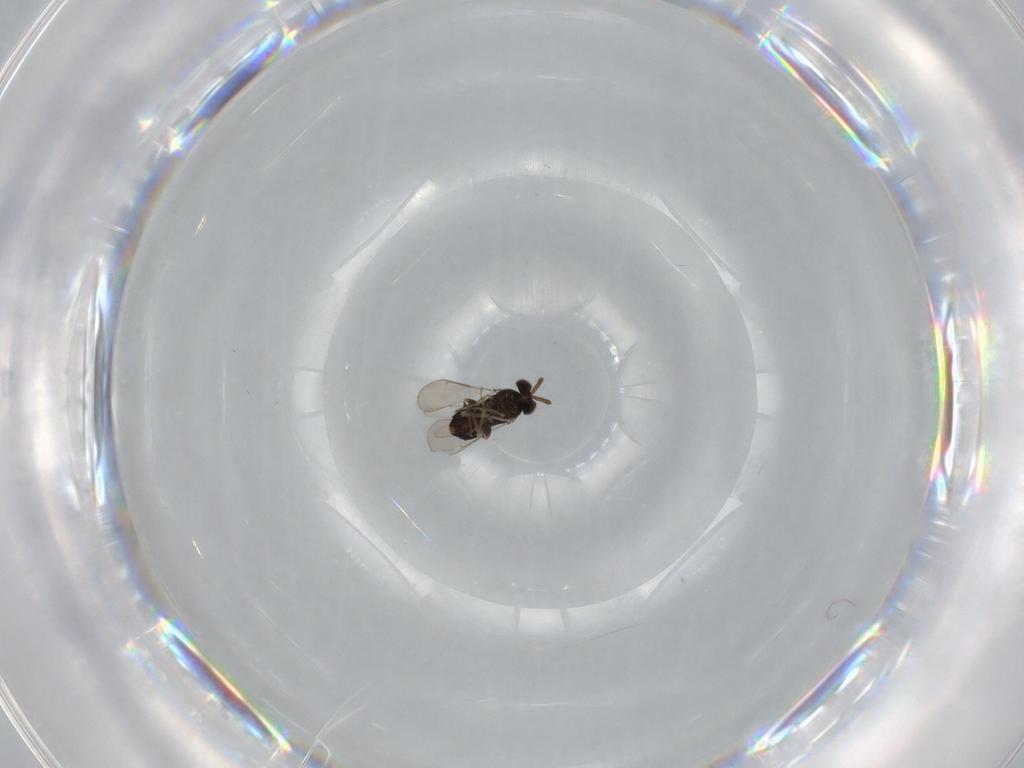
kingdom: Animalia
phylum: Arthropoda
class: Insecta
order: Hymenoptera
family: Aphelinidae
